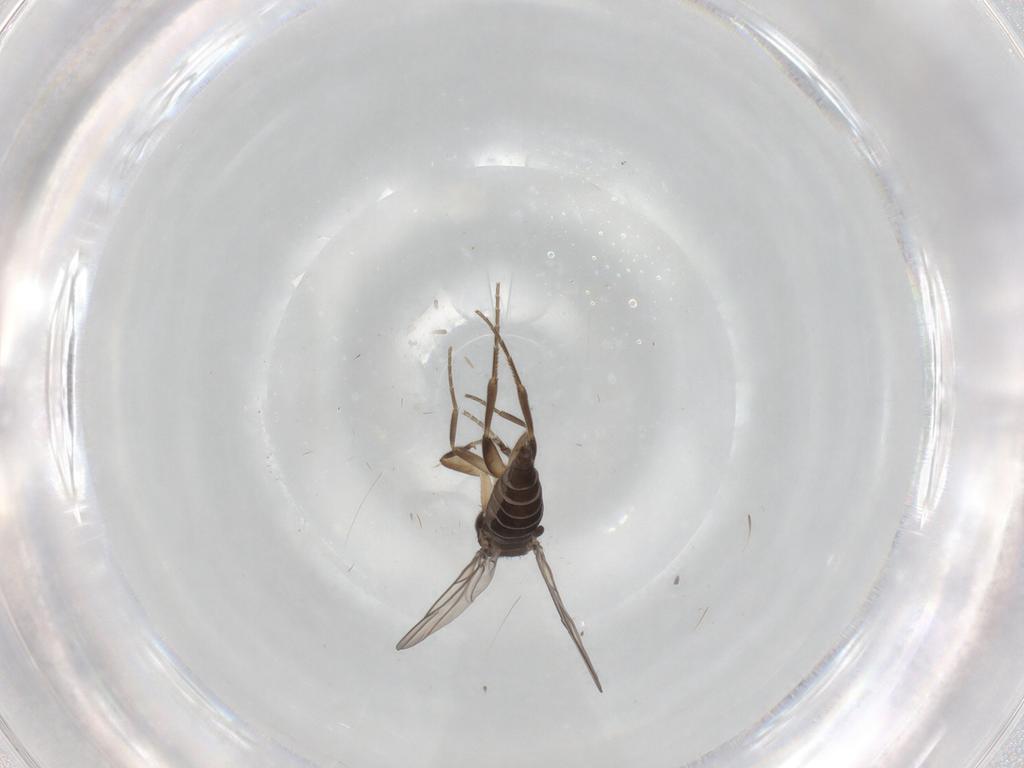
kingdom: Animalia
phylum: Arthropoda
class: Insecta
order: Diptera
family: Phoridae
